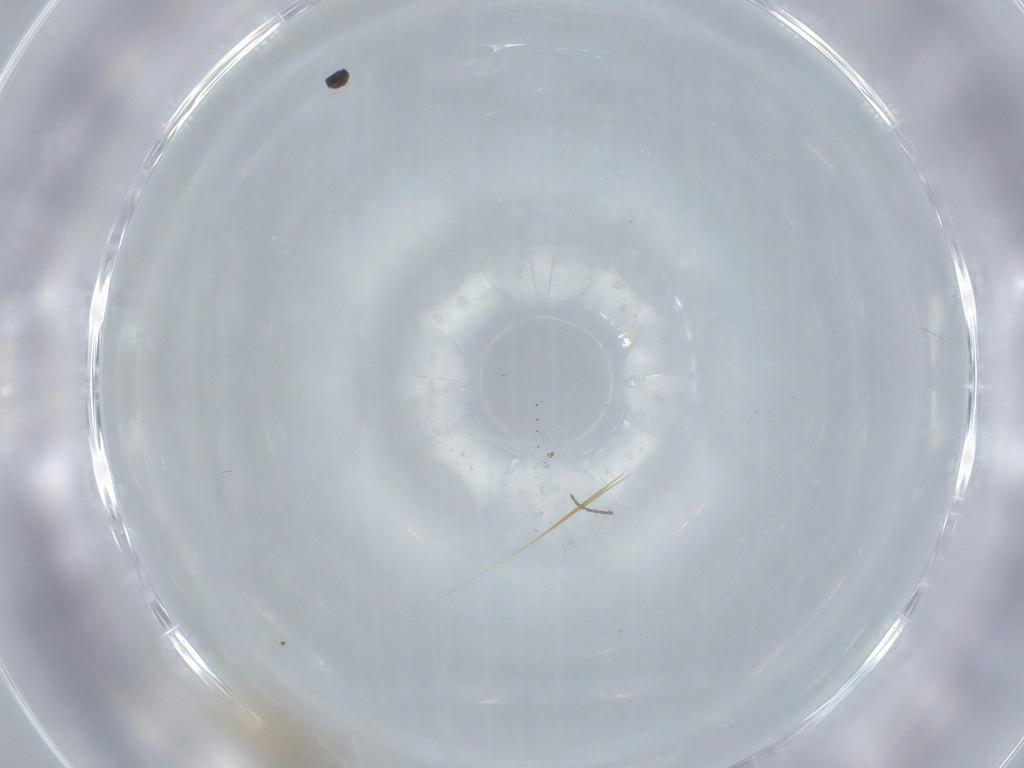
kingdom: Animalia
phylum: Arthropoda
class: Insecta
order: Diptera
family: Cecidomyiidae
